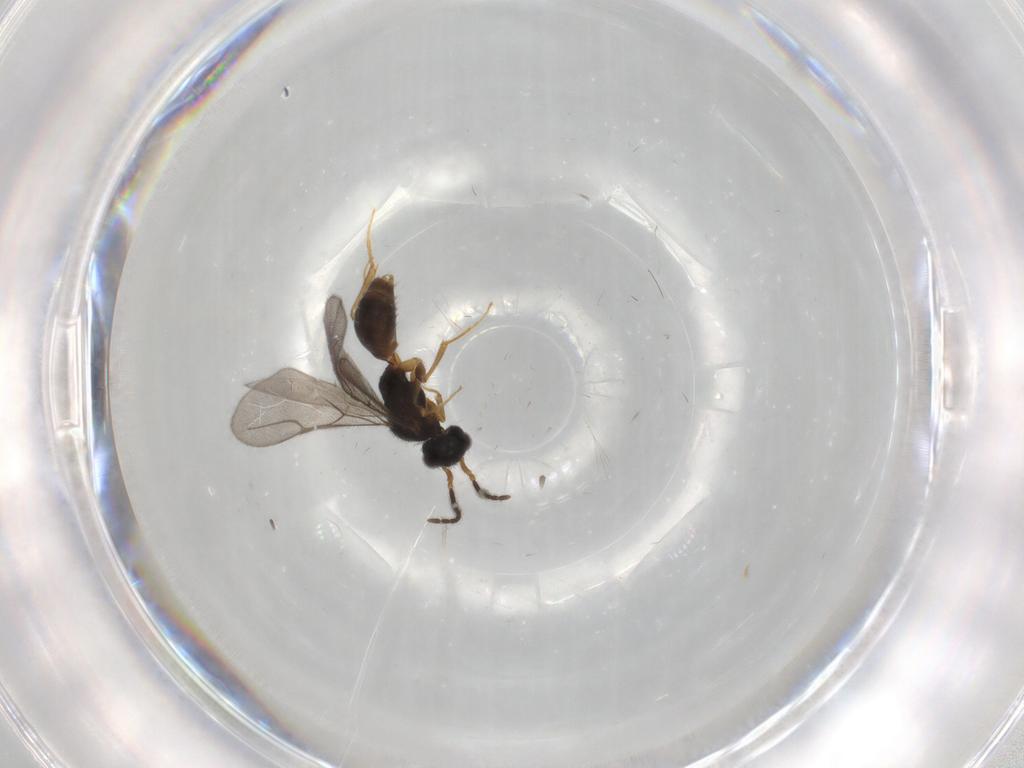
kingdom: Animalia
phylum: Arthropoda
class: Insecta
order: Hymenoptera
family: Bethylidae
